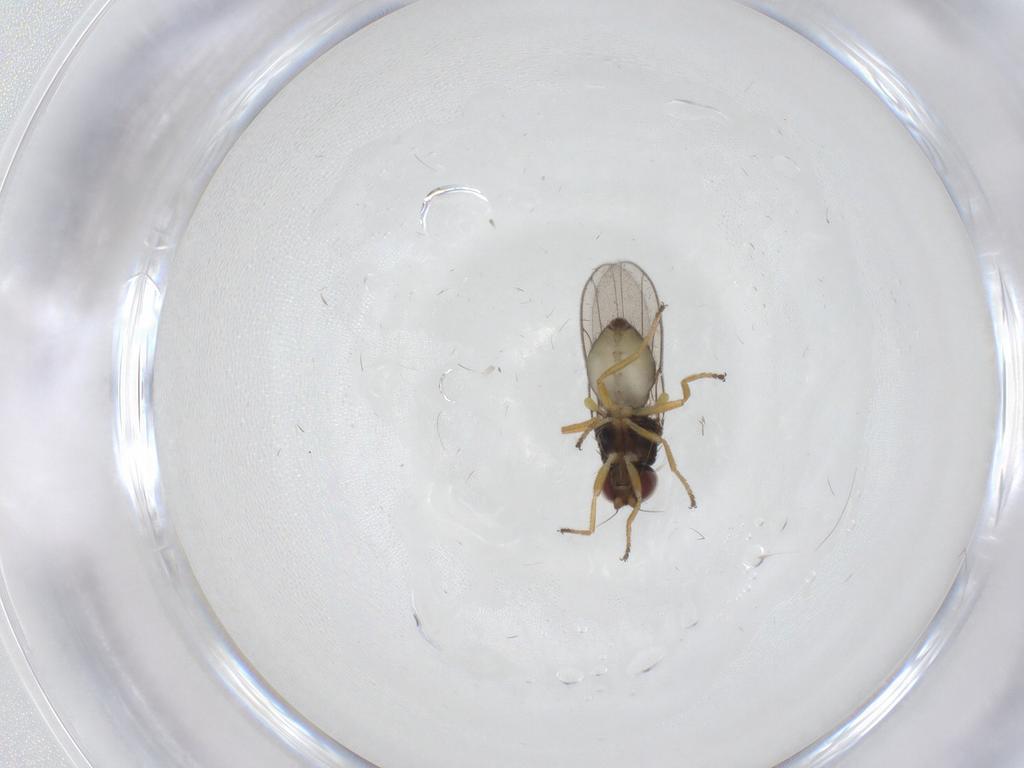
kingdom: Animalia
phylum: Arthropoda
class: Insecta
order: Diptera
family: Chloropidae
